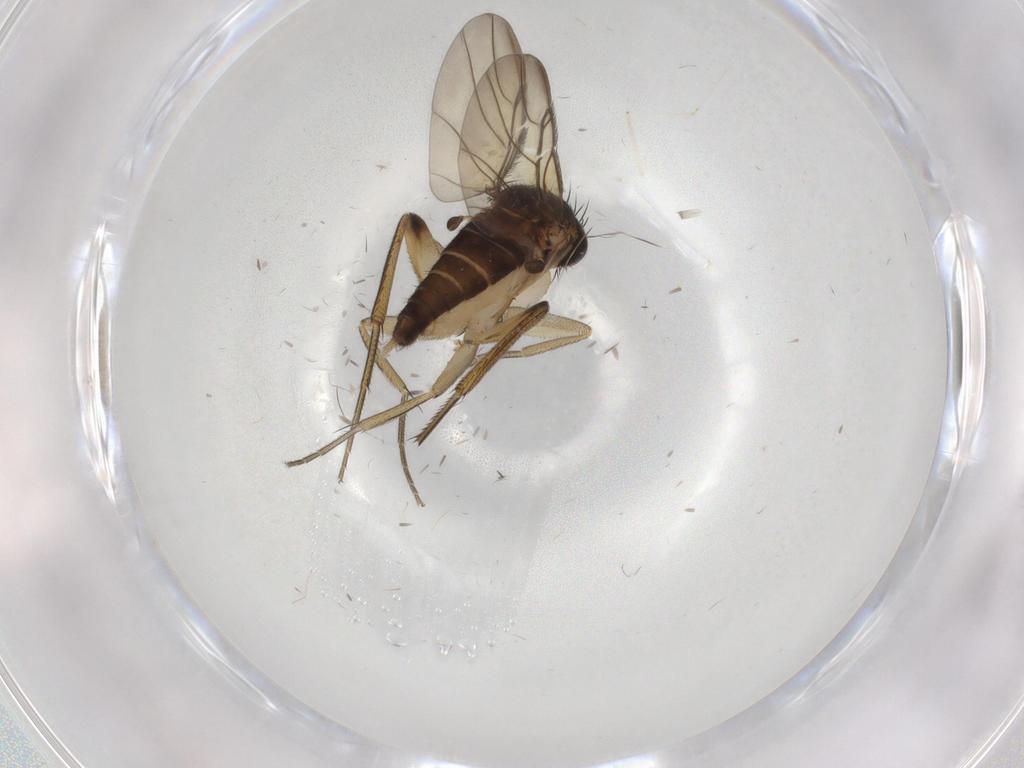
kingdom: Animalia
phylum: Arthropoda
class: Insecta
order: Diptera
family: Phoridae
